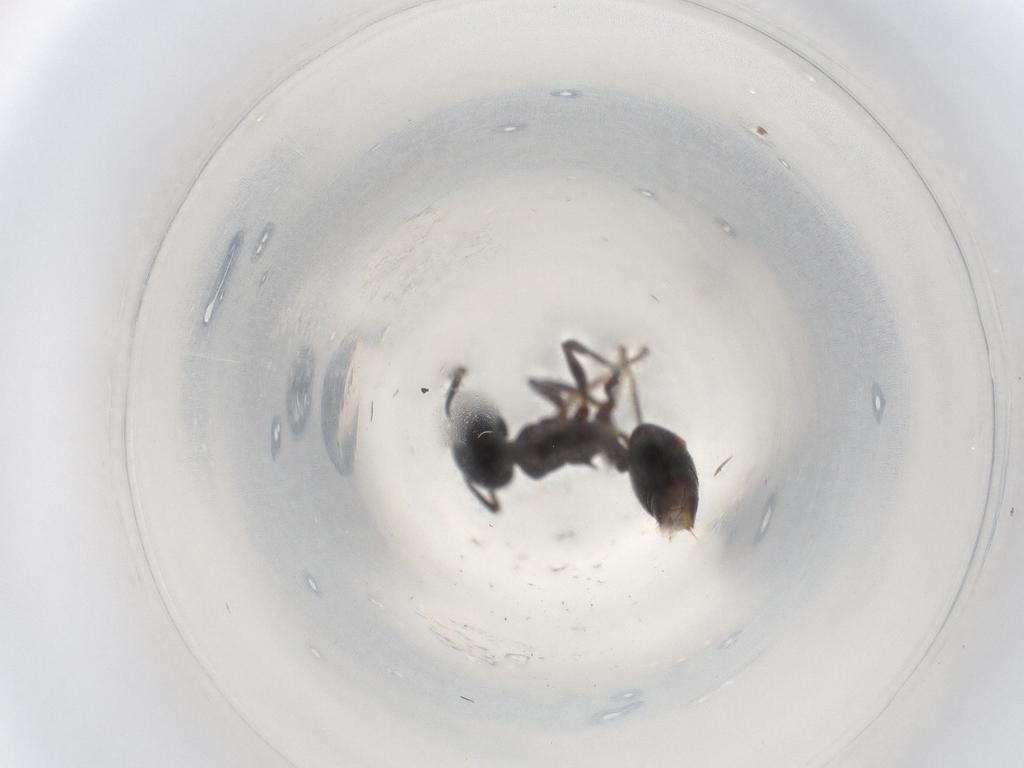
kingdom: Animalia
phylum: Arthropoda
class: Insecta
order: Hymenoptera
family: Formicidae
